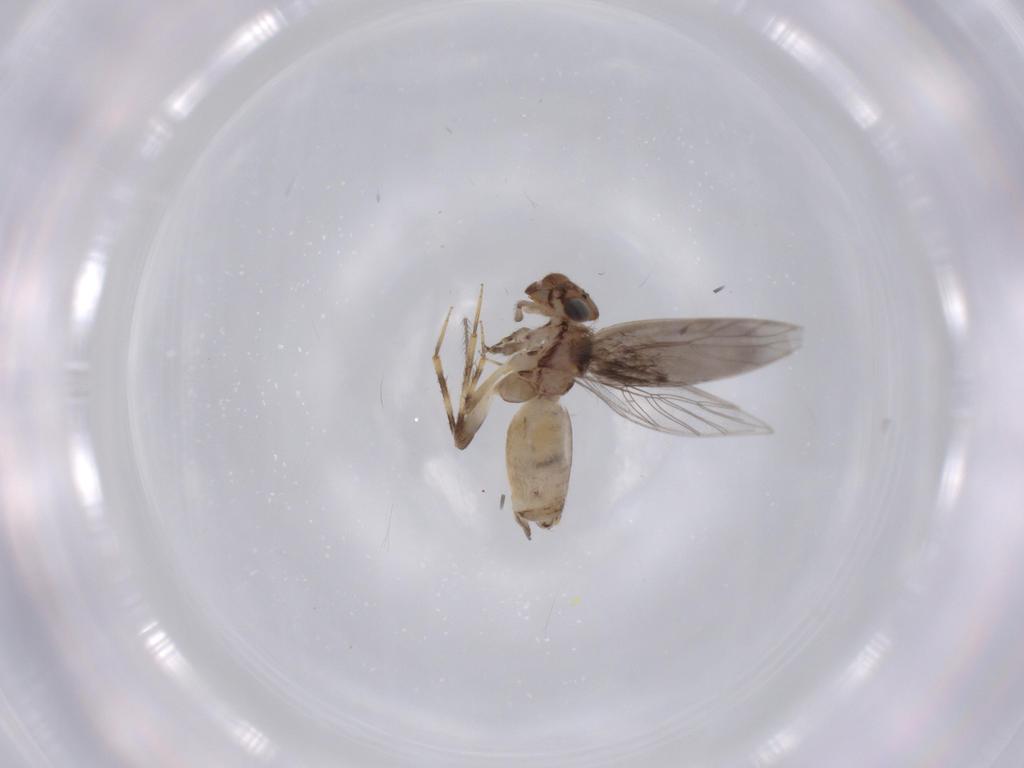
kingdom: Animalia
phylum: Arthropoda
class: Insecta
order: Psocodea
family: Lepidopsocidae
